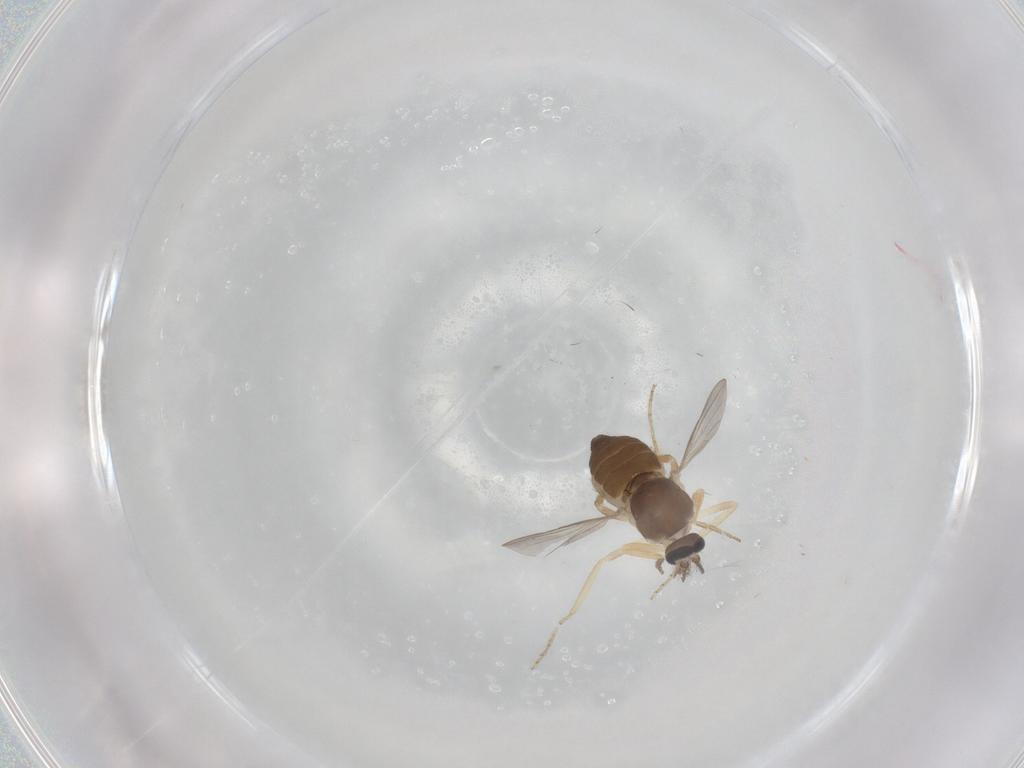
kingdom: Animalia
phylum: Arthropoda
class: Insecta
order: Diptera
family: Ceratopogonidae
